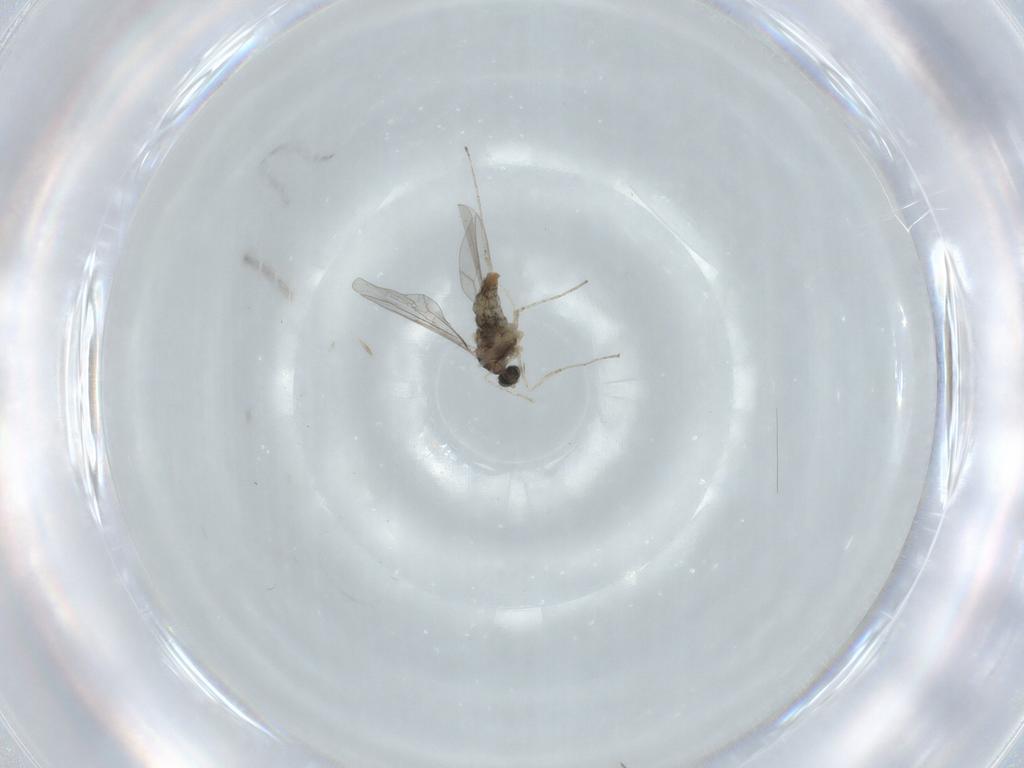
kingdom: Animalia
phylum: Arthropoda
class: Insecta
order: Diptera
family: Cecidomyiidae
